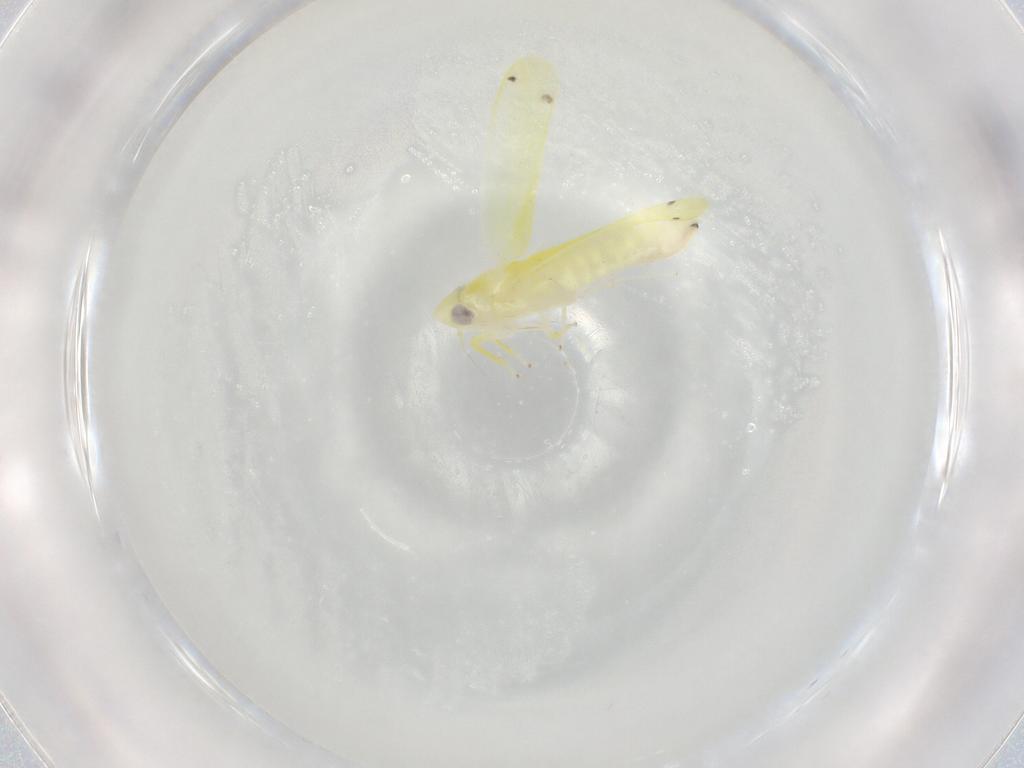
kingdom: Animalia
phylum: Arthropoda
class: Insecta
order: Hemiptera
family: Cicadellidae
